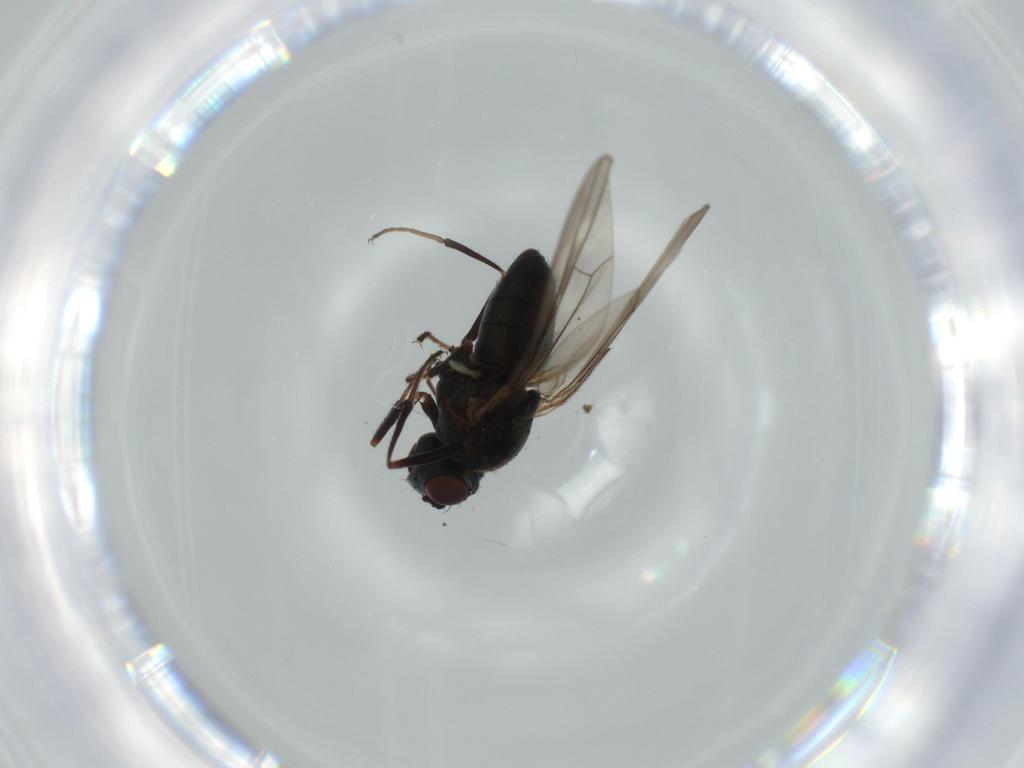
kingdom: Animalia
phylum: Arthropoda
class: Insecta
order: Diptera
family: Ephydridae
